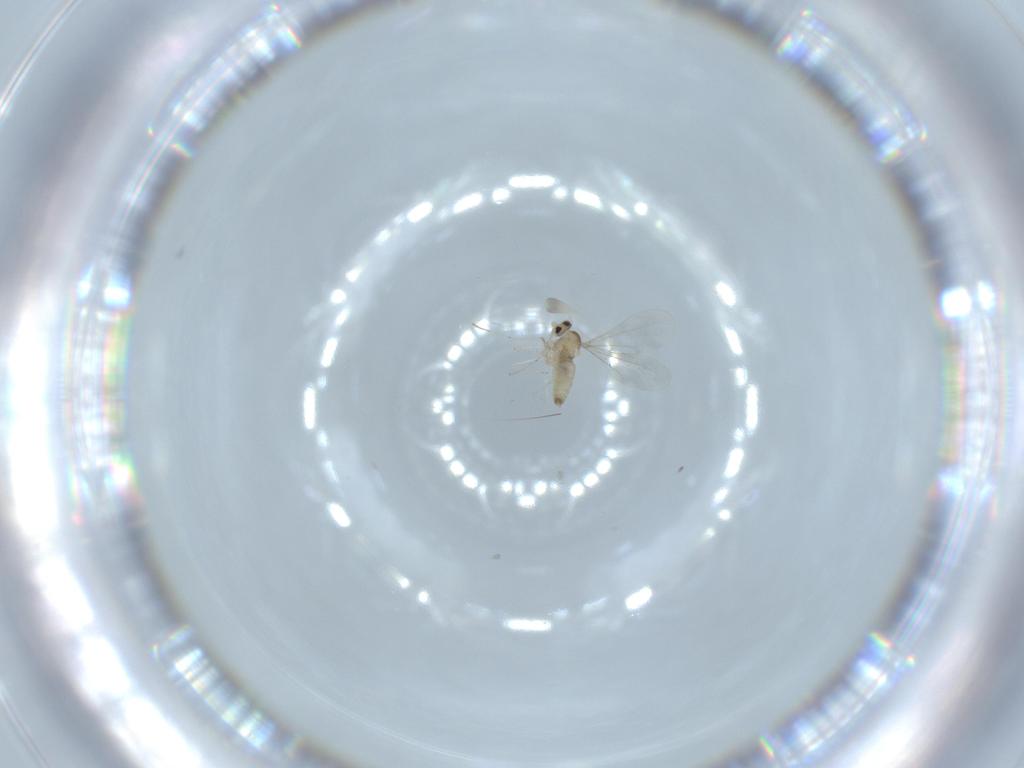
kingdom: Animalia
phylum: Arthropoda
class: Insecta
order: Diptera
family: Cecidomyiidae
